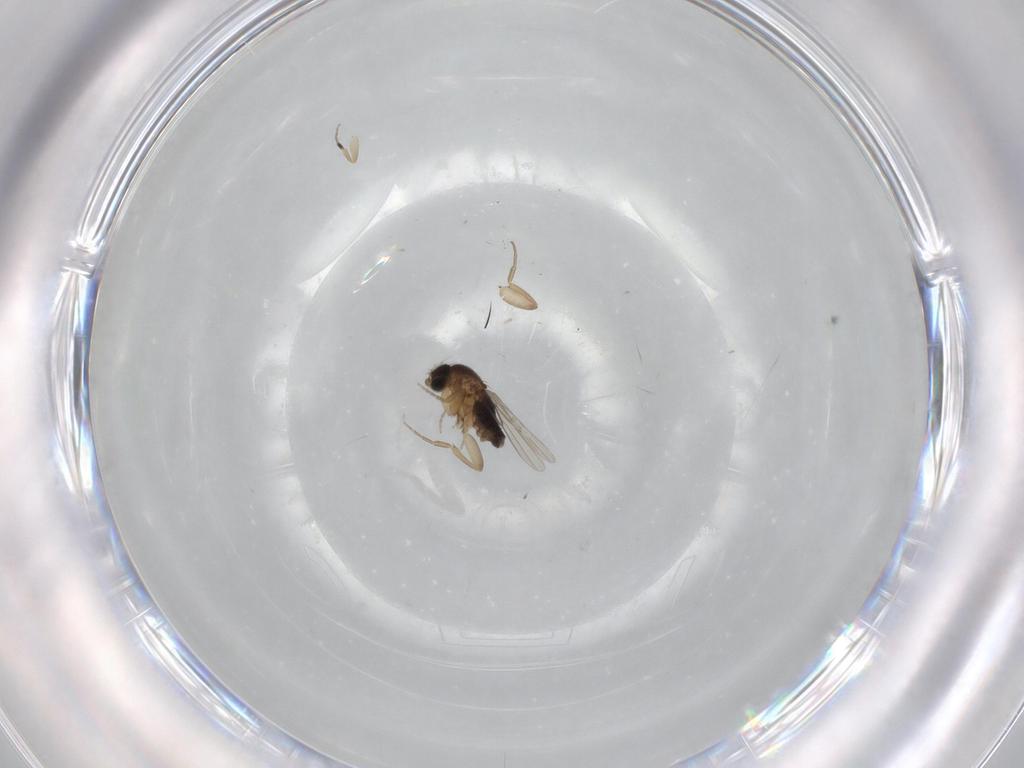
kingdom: Animalia
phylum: Arthropoda
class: Insecta
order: Diptera
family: Phoridae
